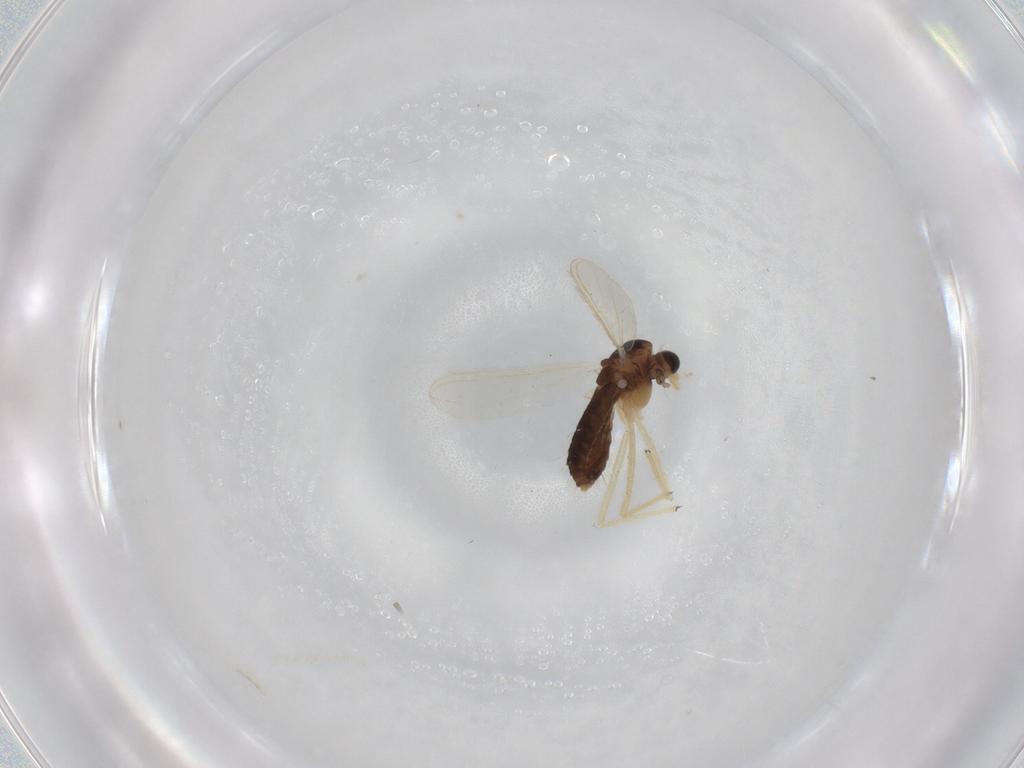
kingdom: Animalia
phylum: Arthropoda
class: Insecta
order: Diptera
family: Chironomidae
